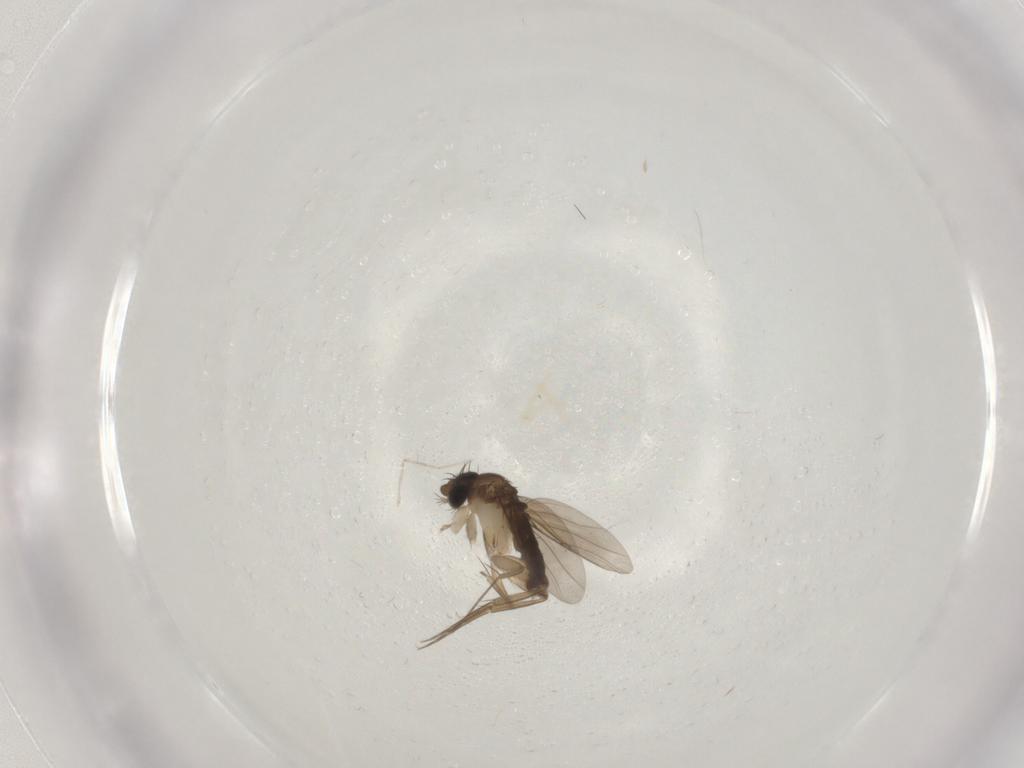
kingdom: Animalia
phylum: Arthropoda
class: Insecta
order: Diptera
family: Phoridae
